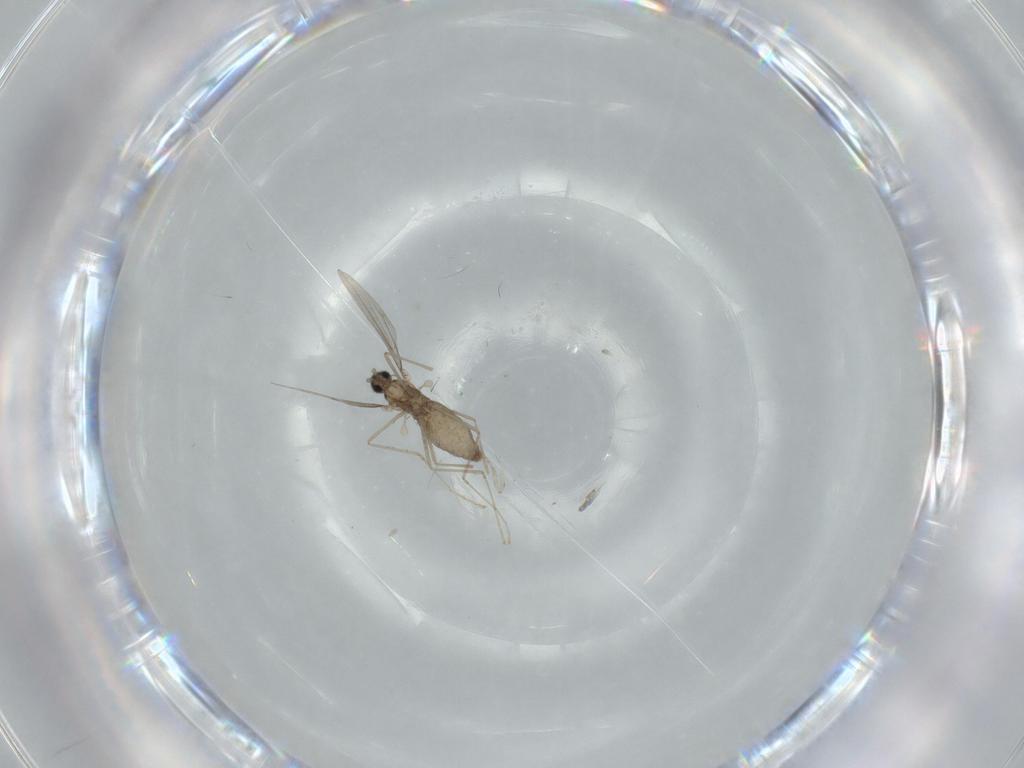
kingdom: Animalia
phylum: Arthropoda
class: Insecta
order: Diptera
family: Cecidomyiidae
